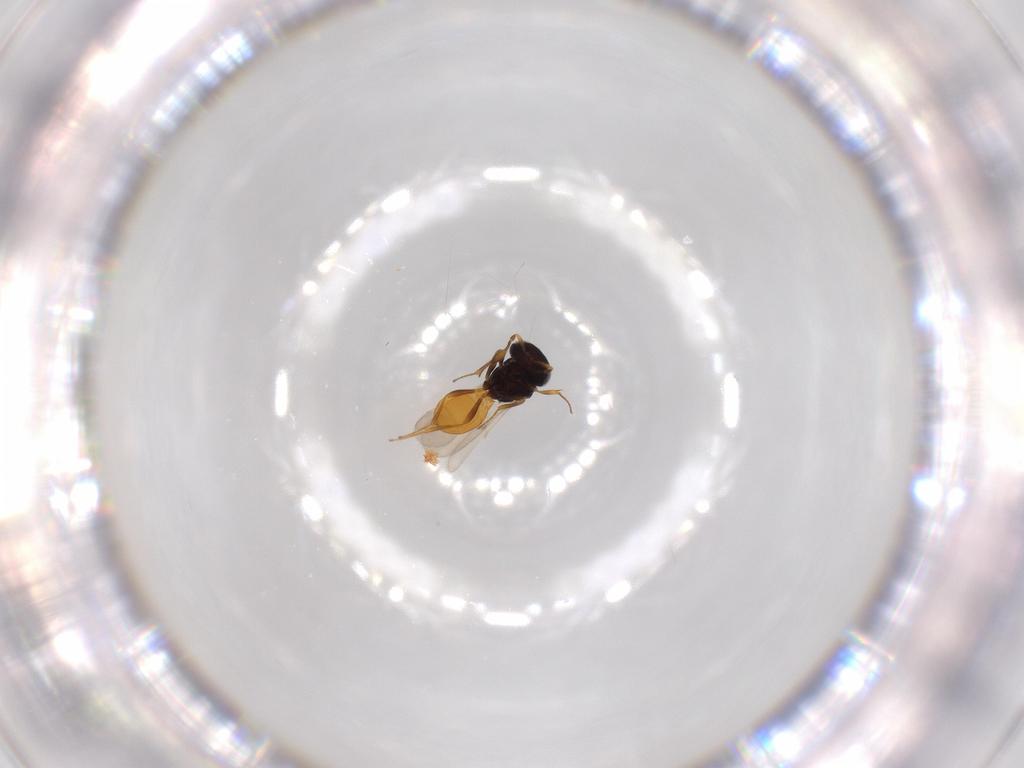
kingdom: Animalia
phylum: Arthropoda
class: Insecta
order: Hymenoptera
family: Scelionidae
